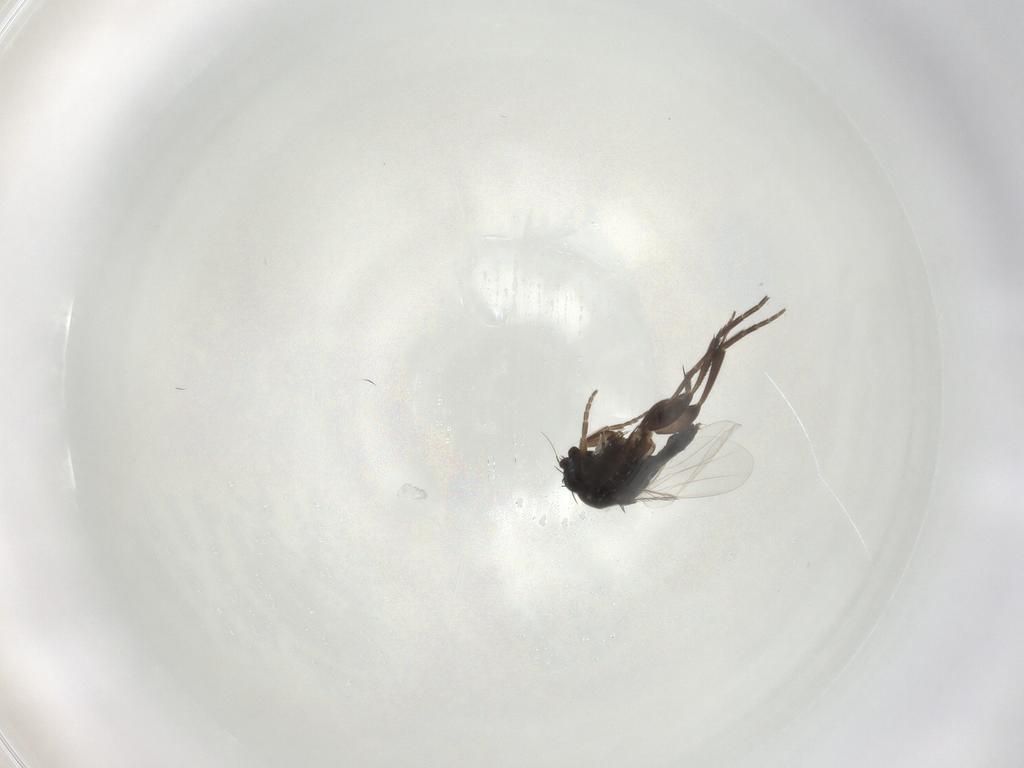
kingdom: Animalia
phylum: Arthropoda
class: Insecta
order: Diptera
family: Phoridae
